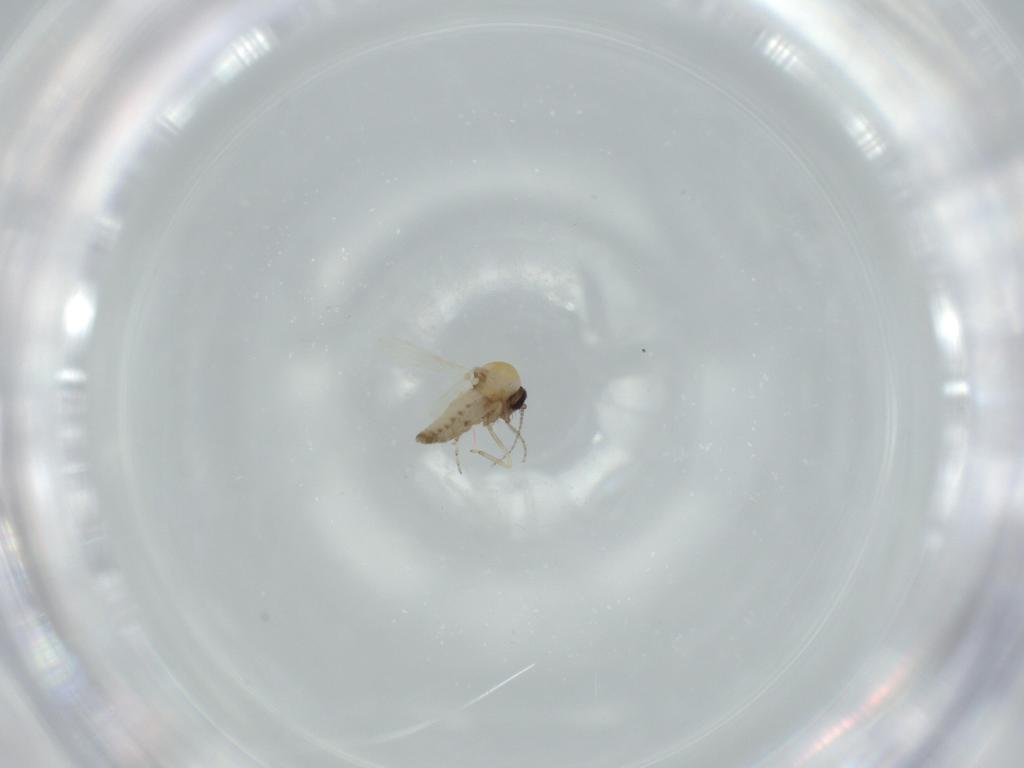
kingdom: Animalia
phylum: Arthropoda
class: Insecta
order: Diptera
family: Ceratopogonidae
